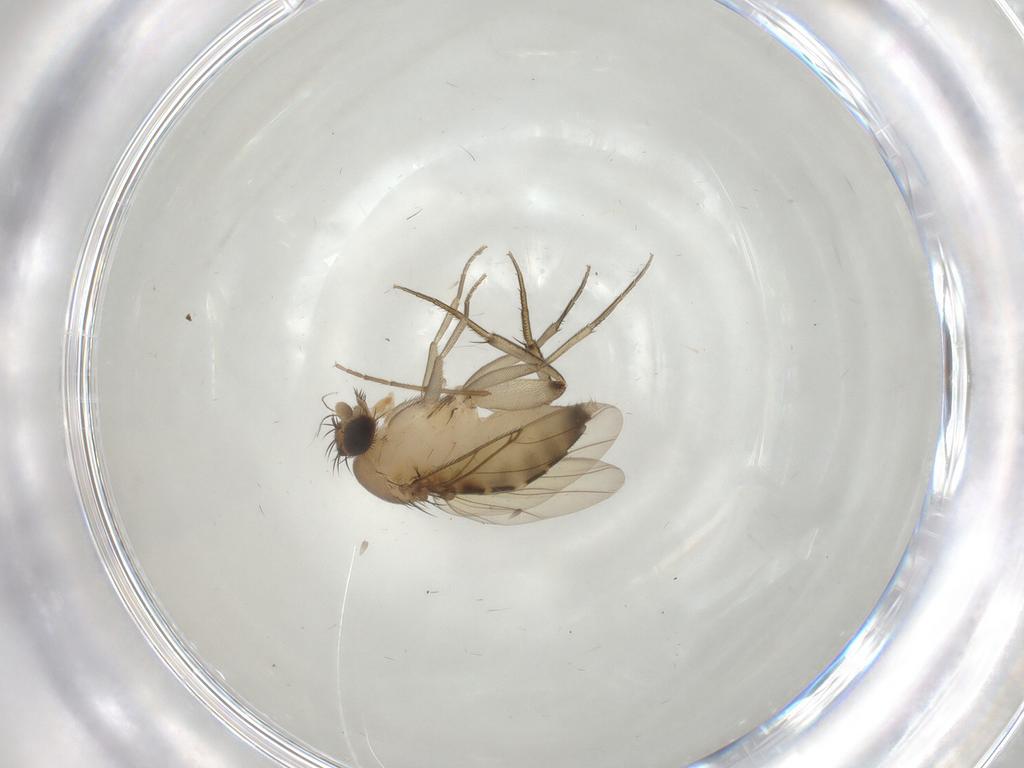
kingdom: Animalia
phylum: Arthropoda
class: Insecta
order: Diptera
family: Phoridae
